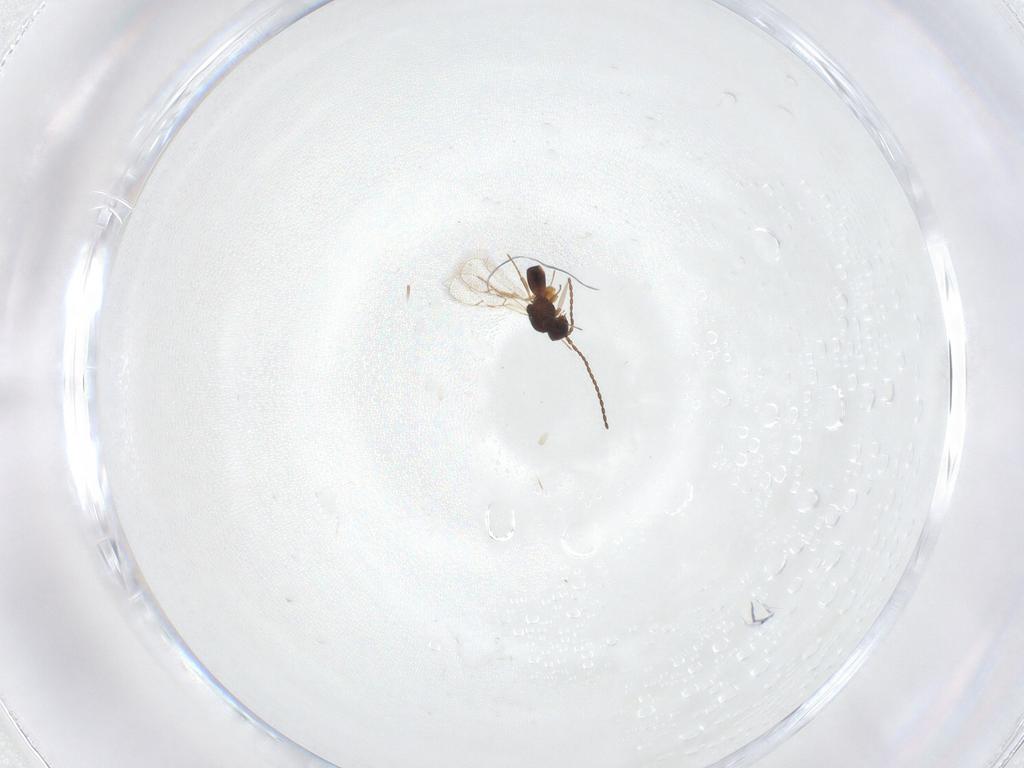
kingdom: Animalia
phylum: Arthropoda
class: Insecta
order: Hymenoptera
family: Figitidae
